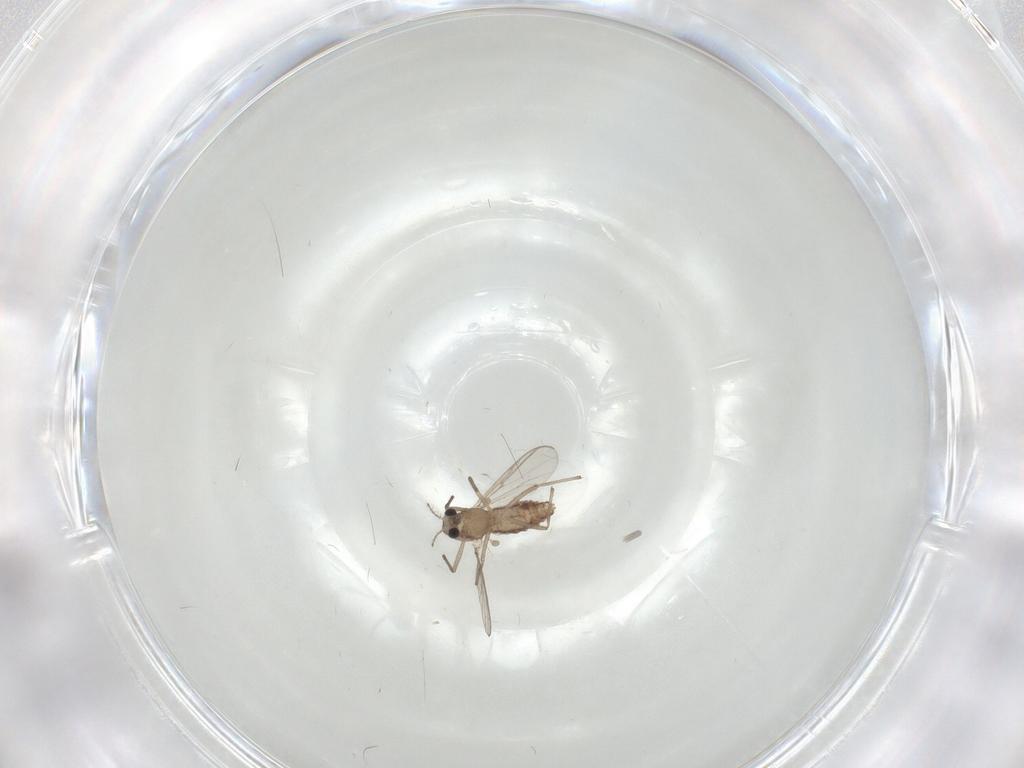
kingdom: Animalia
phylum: Arthropoda
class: Insecta
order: Diptera
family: Chironomidae
